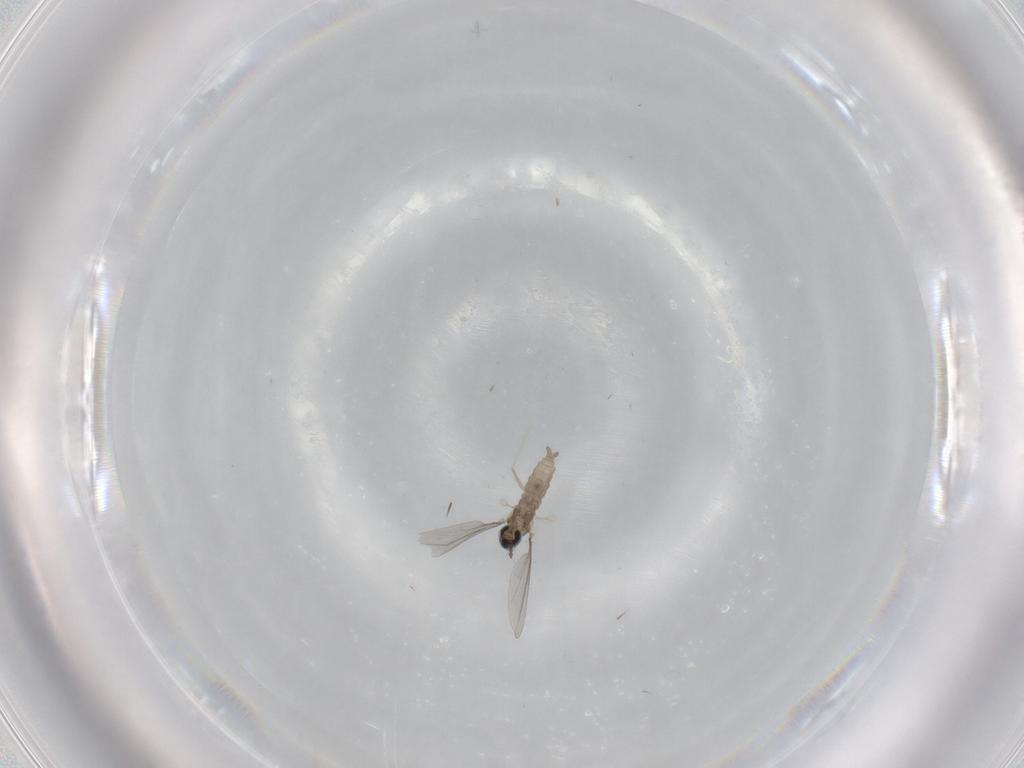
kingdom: Animalia
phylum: Arthropoda
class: Insecta
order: Diptera
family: Cecidomyiidae
